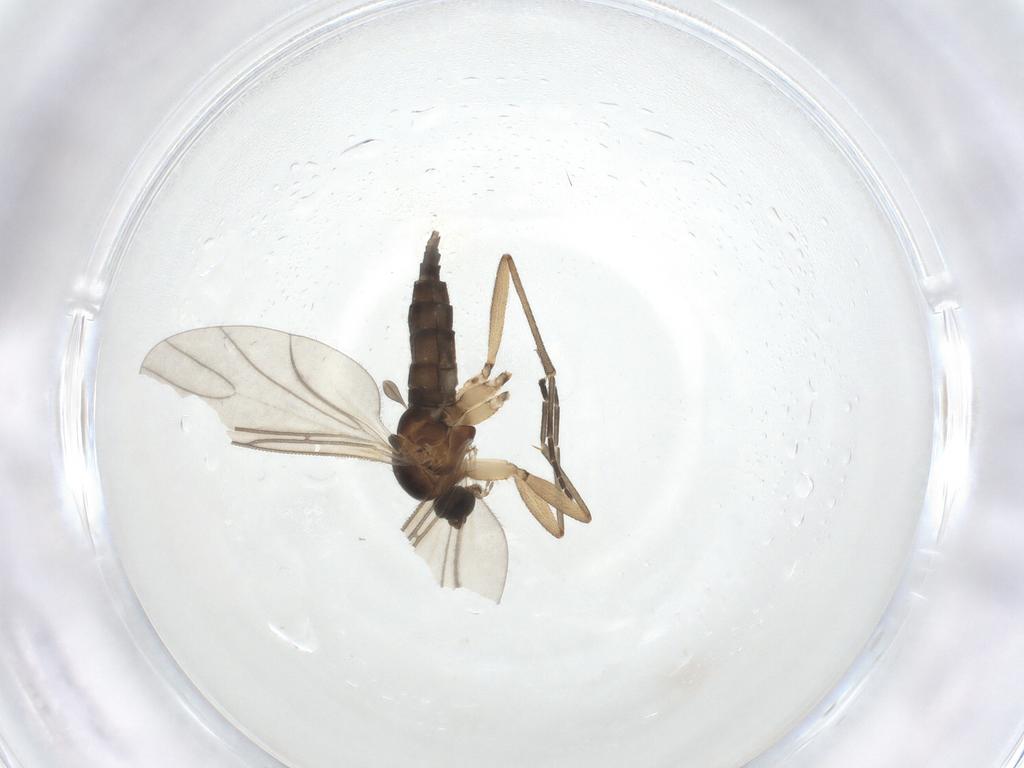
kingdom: Animalia
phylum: Arthropoda
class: Insecta
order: Diptera
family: Sciaridae
